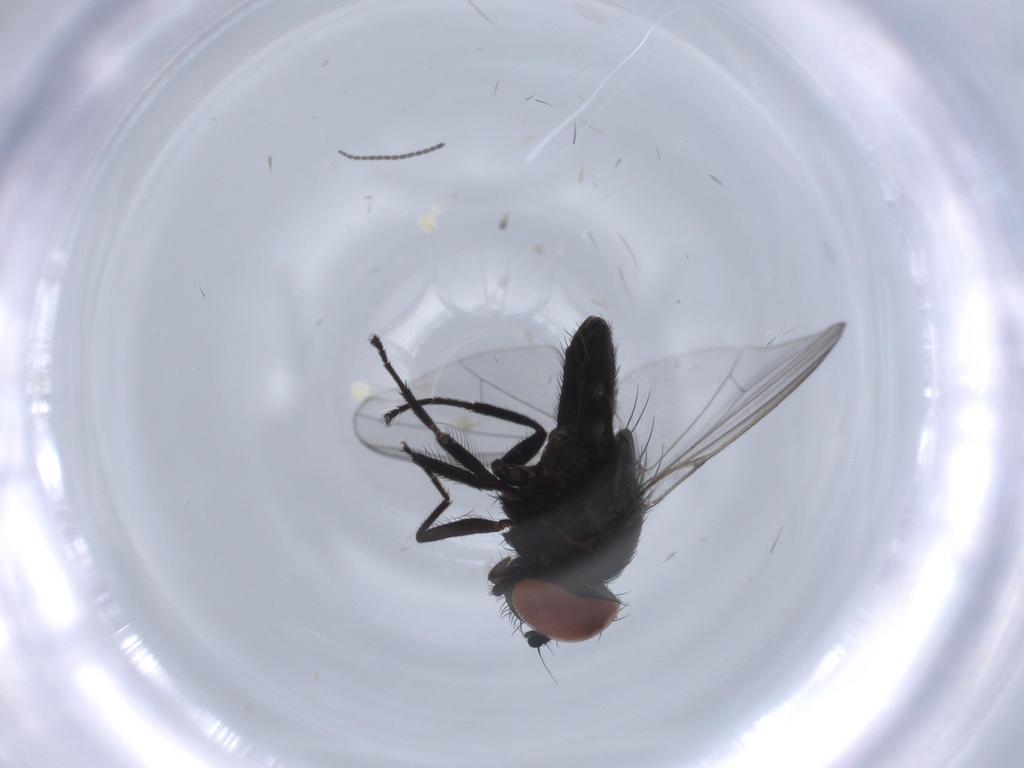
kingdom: Animalia
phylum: Arthropoda
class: Insecta
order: Diptera
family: Milichiidae
